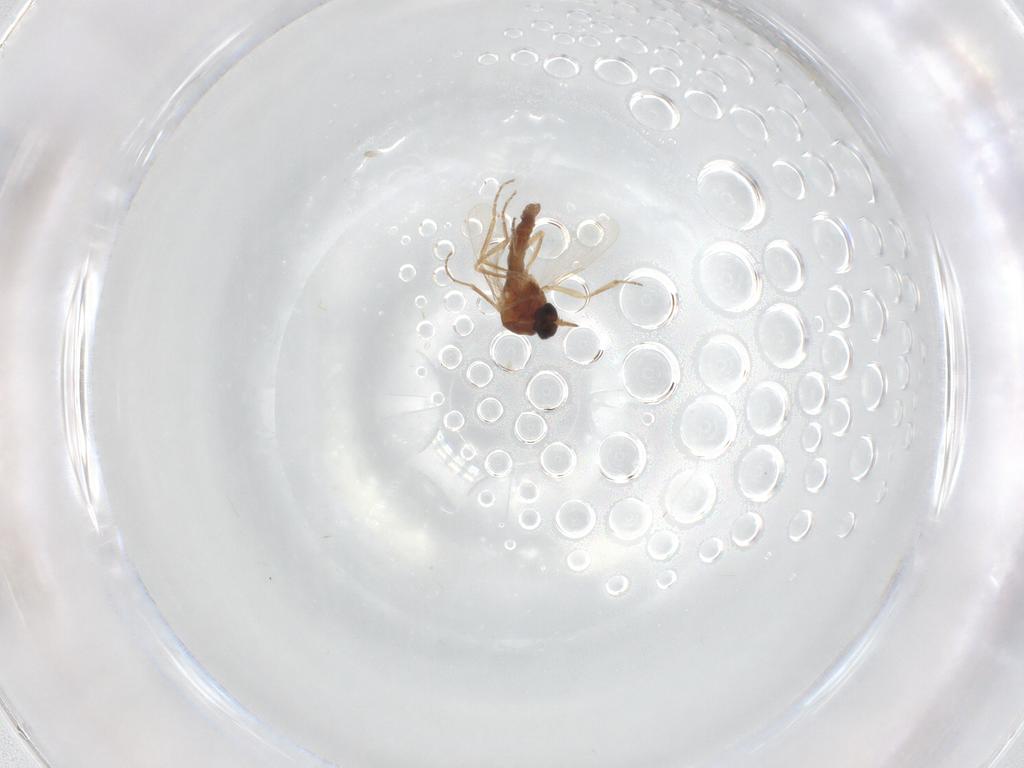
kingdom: Animalia
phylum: Arthropoda
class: Insecta
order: Diptera
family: Ceratopogonidae
